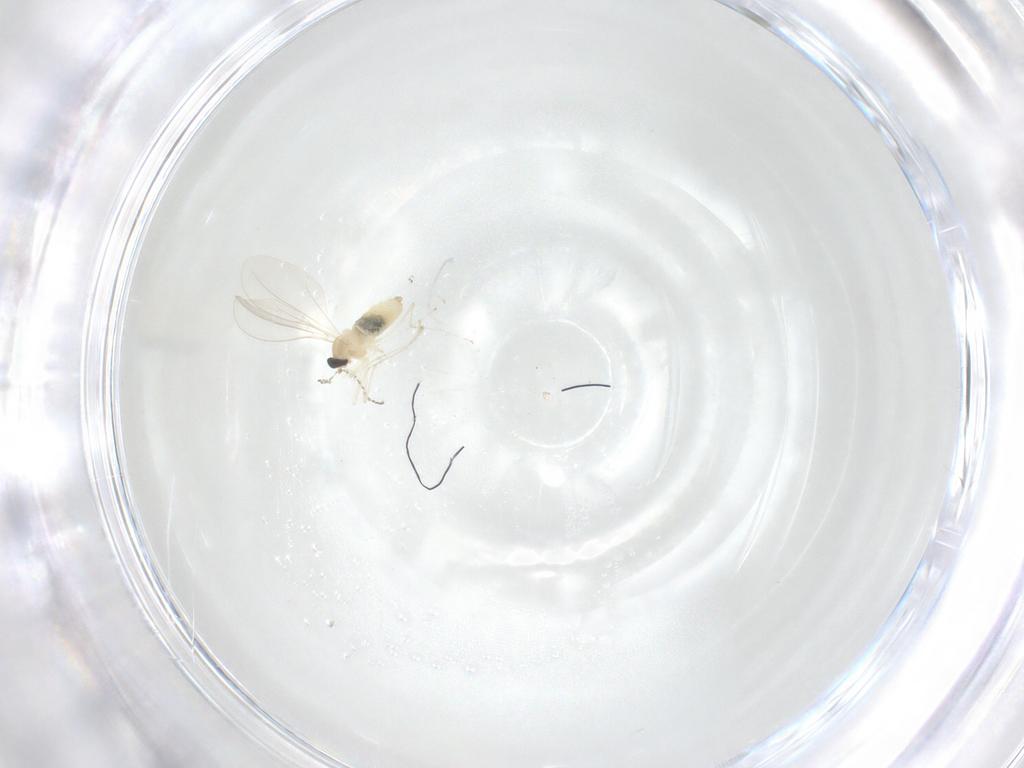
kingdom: Animalia
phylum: Arthropoda
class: Insecta
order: Diptera
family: Cecidomyiidae
